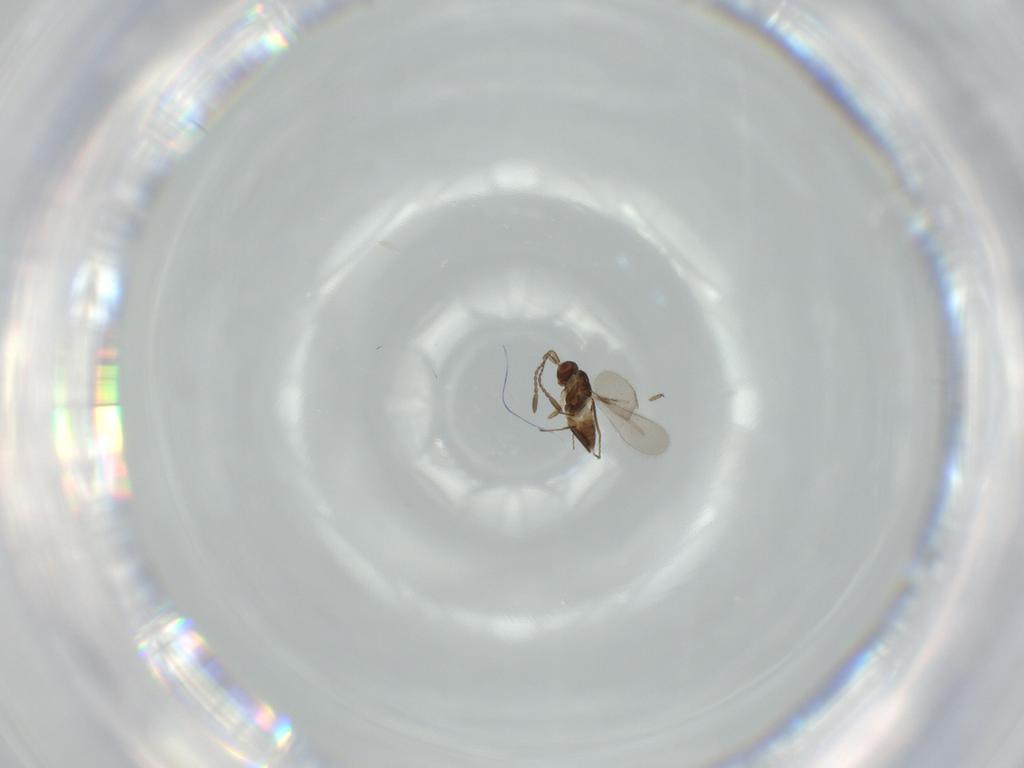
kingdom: Animalia
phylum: Arthropoda
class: Insecta
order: Hymenoptera
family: Mymaridae
